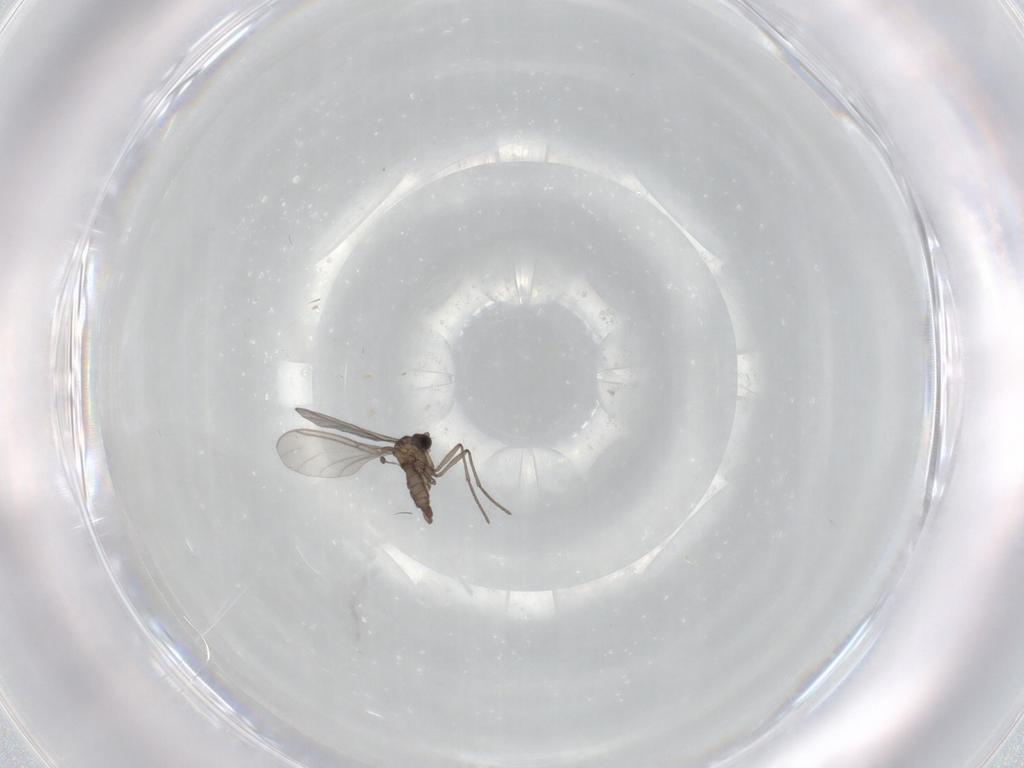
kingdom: Animalia
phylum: Arthropoda
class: Insecta
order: Diptera
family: Sciaridae
